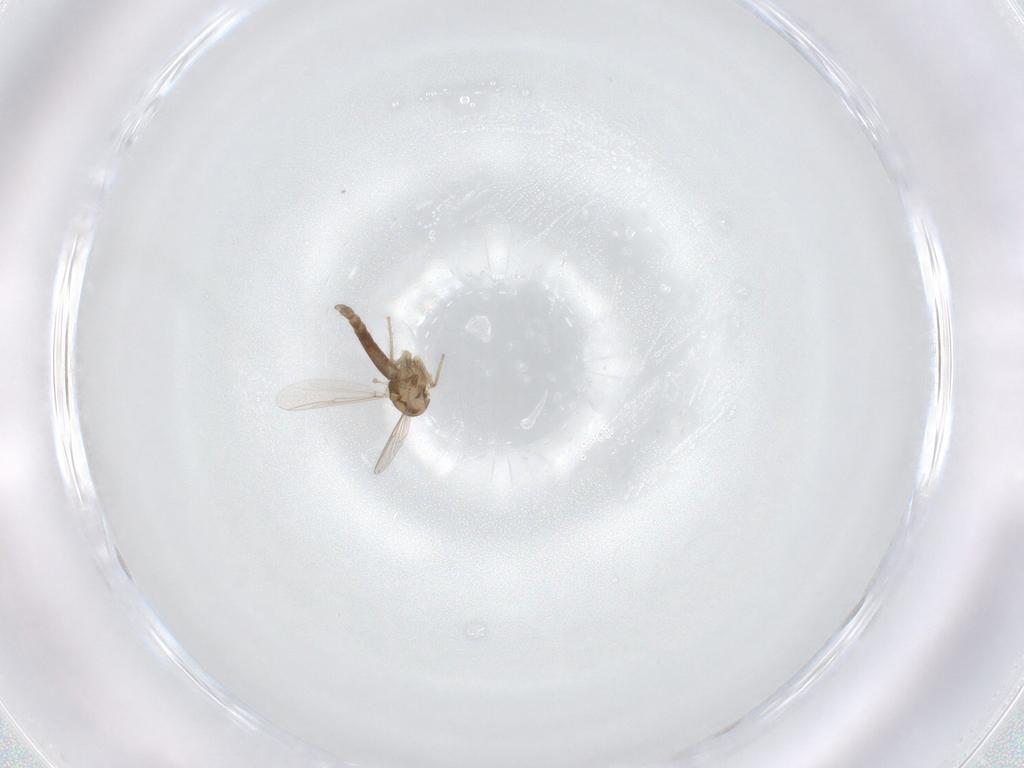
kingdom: Animalia
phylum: Arthropoda
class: Insecta
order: Diptera
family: Chironomidae
